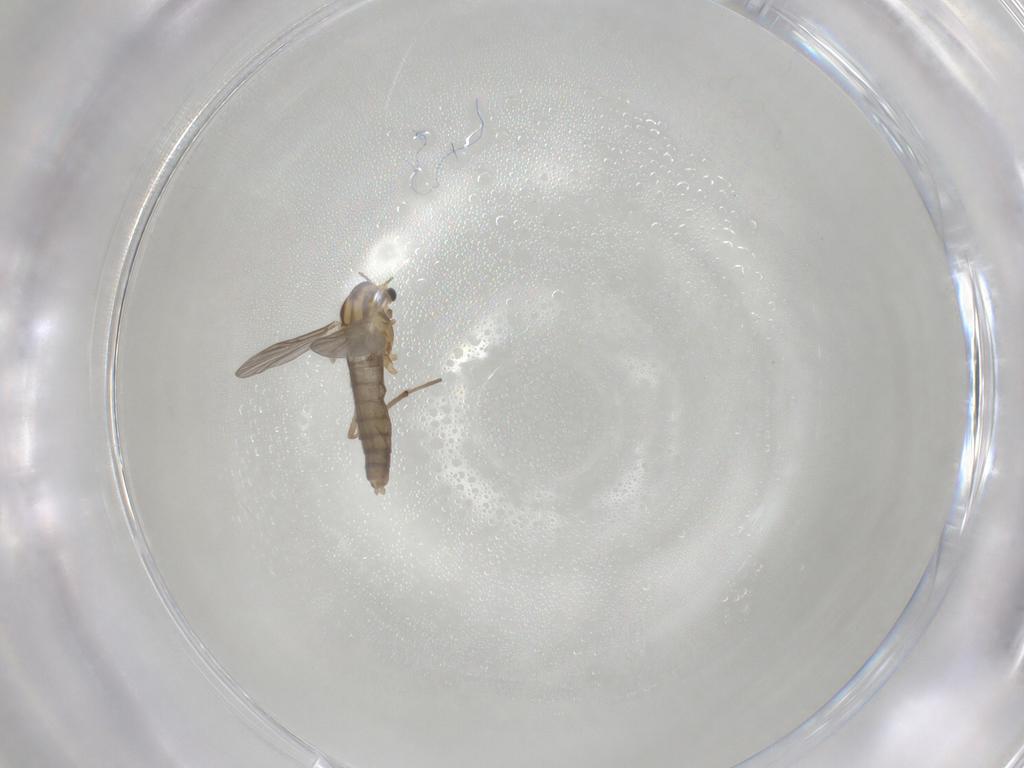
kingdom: Animalia
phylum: Arthropoda
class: Insecta
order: Diptera
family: Chironomidae
